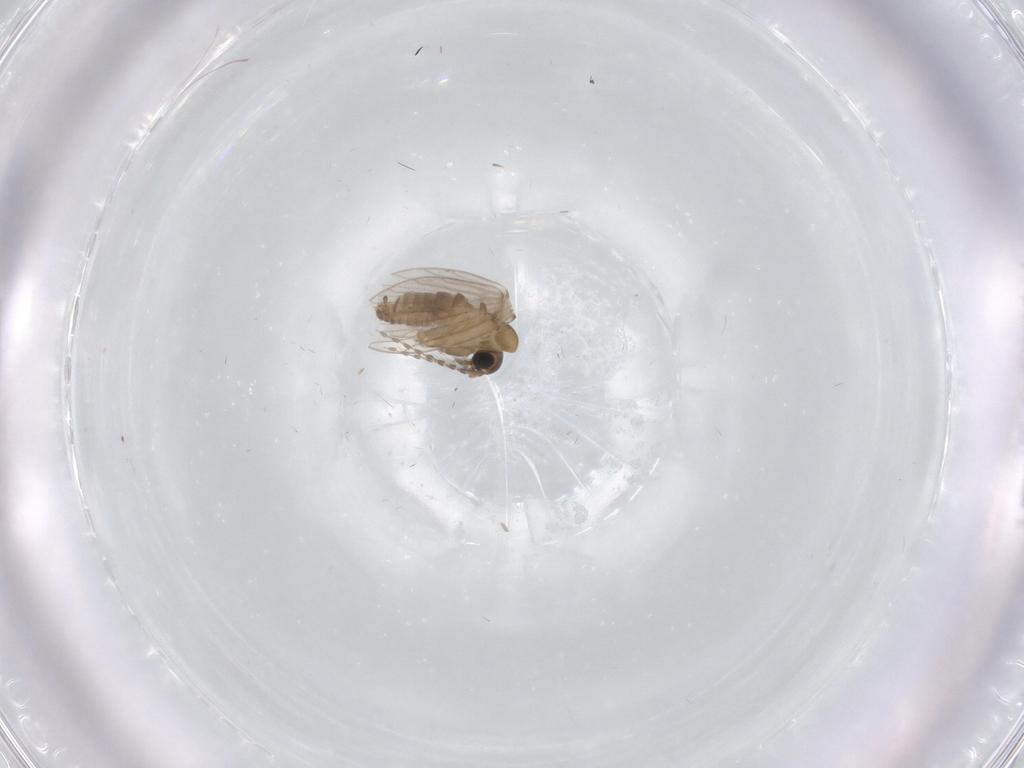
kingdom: Animalia
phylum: Arthropoda
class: Insecta
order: Diptera
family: Psychodidae
